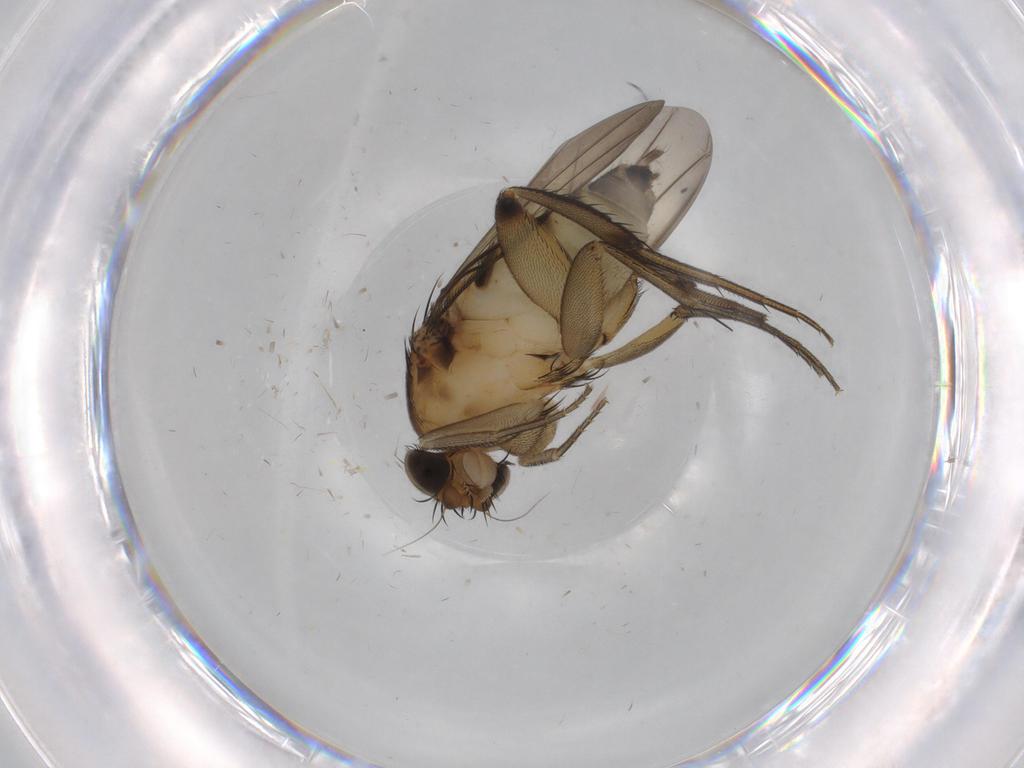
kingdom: Animalia
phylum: Arthropoda
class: Insecta
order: Diptera
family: Phoridae
